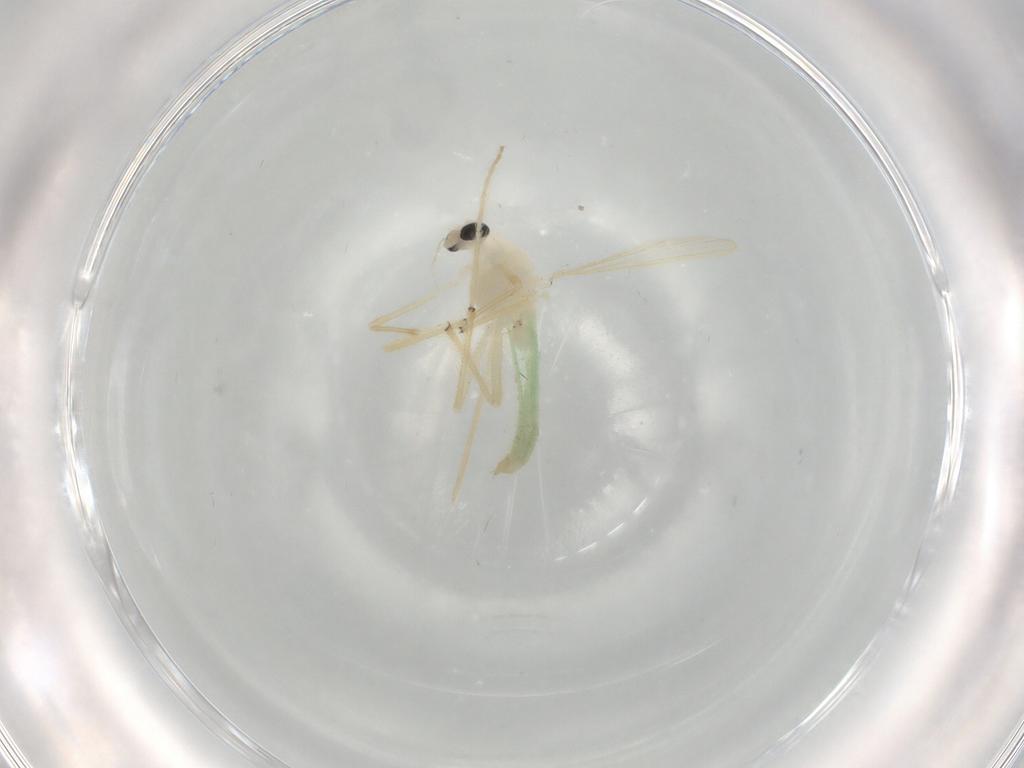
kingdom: Animalia
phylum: Arthropoda
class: Insecta
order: Diptera
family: Chironomidae
